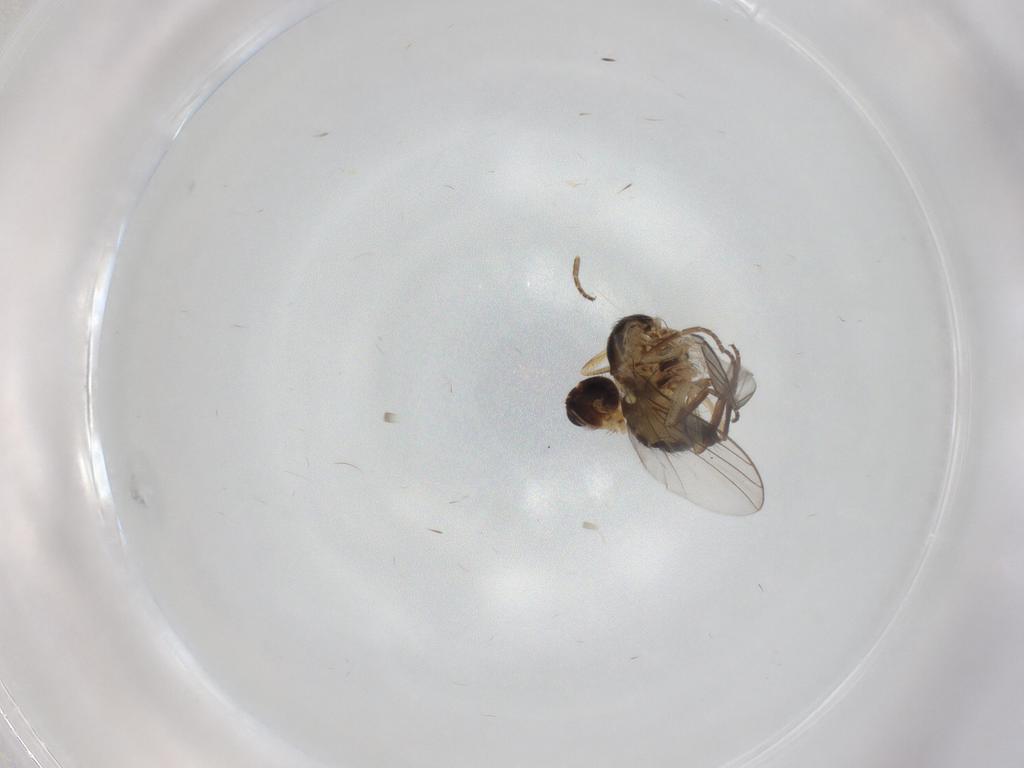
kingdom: Animalia
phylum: Arthropoda
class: Insecta
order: Diptera
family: Agromyzidae
